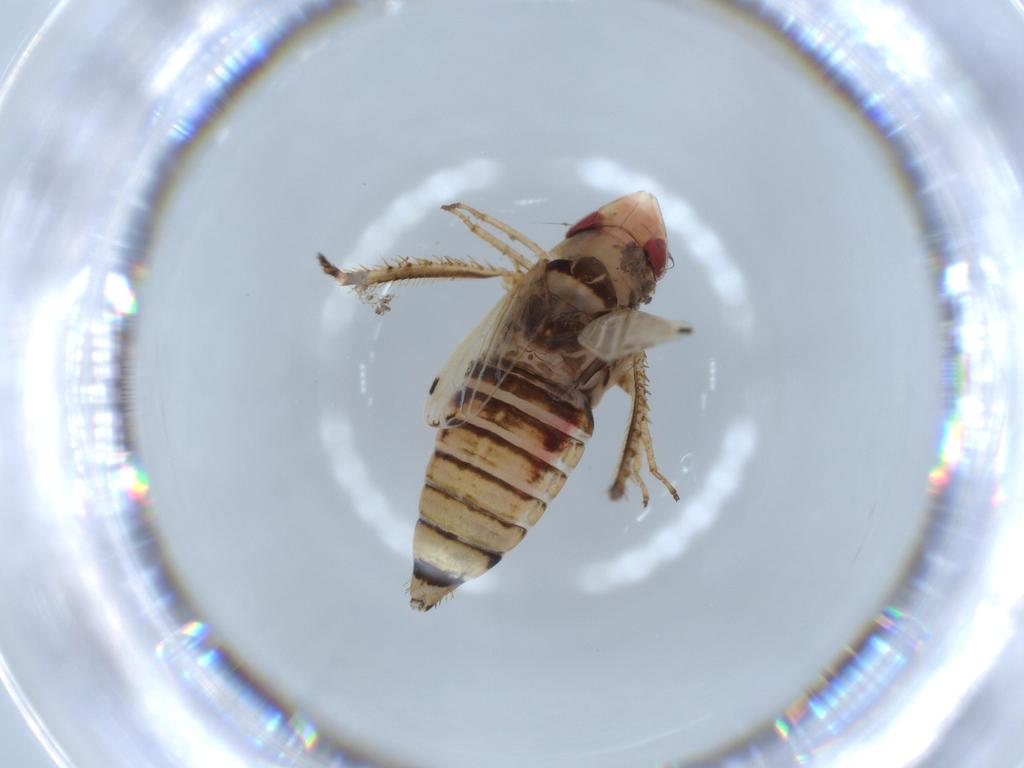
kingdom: Animalia
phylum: Arthropoda
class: Insecta
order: Hemiptera
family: Cicadellidae
